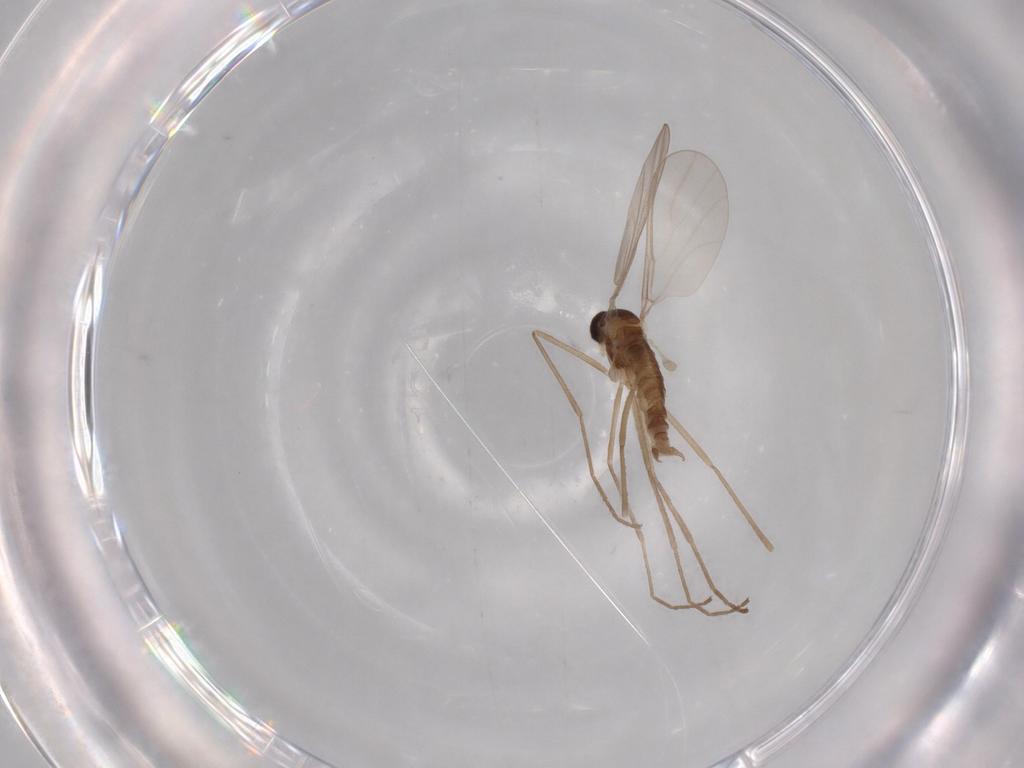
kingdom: Animalia
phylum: Arthropoda
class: Insecta
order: Diptera
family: Cecidomyiidae
